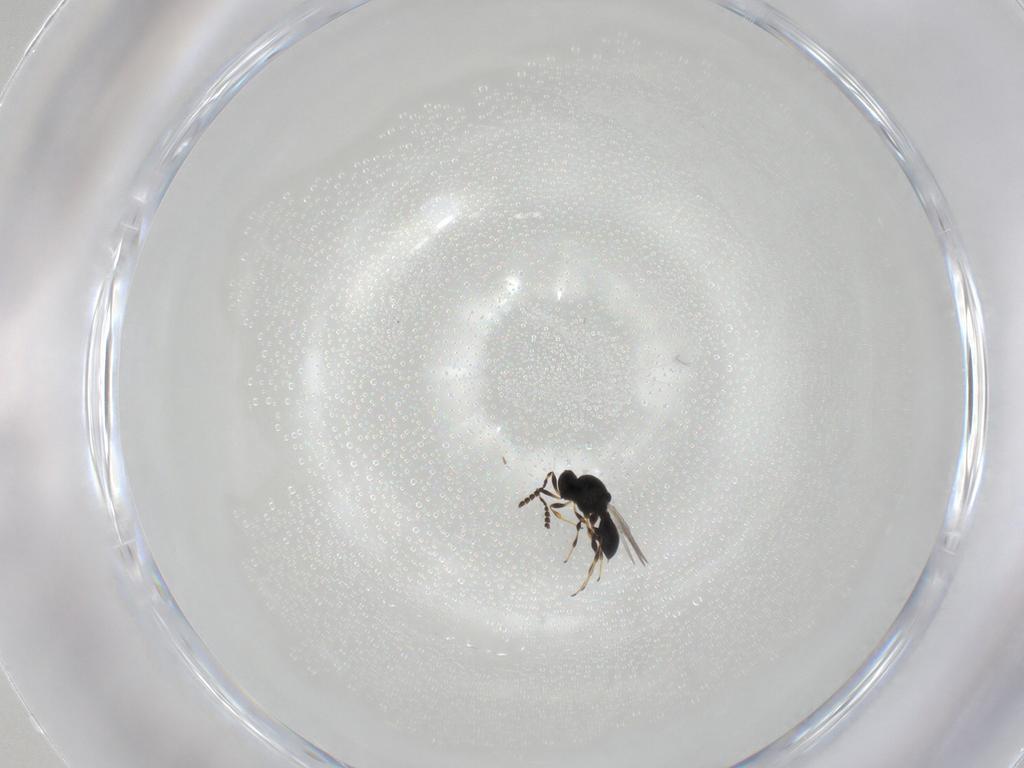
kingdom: Animalia
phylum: Arthropoda
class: Insecta
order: Hymenoptera
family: Platygastridae
